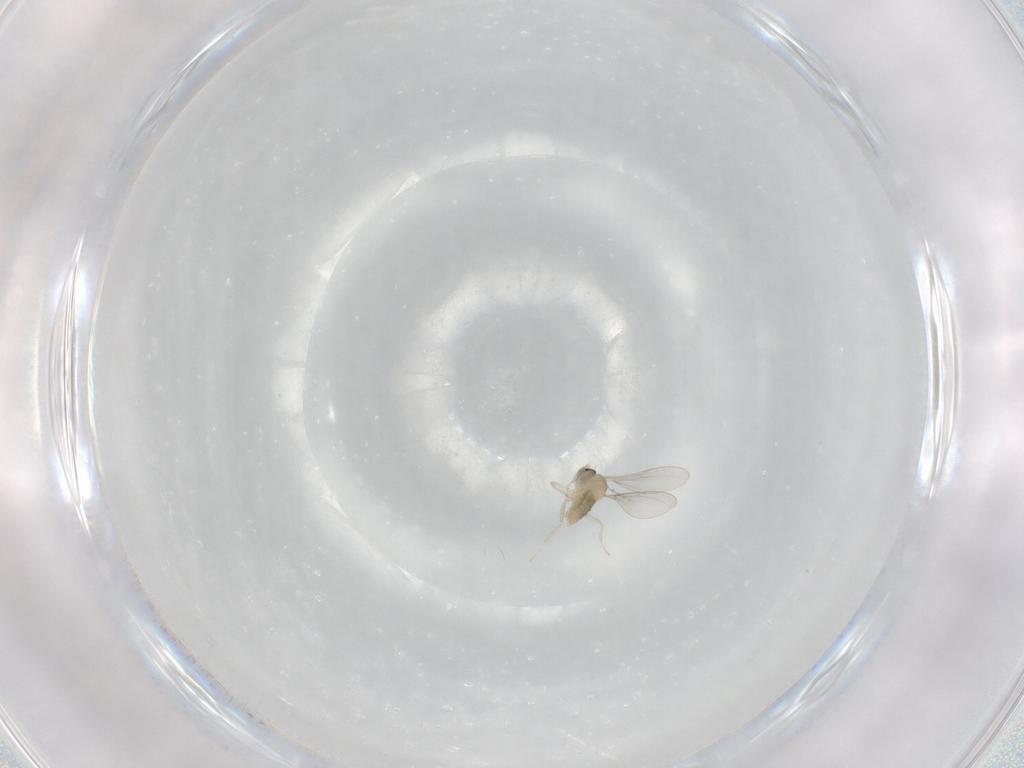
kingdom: Animalia
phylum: Arthropoda
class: Insecta
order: Diptera
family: Cecidomyiidae
